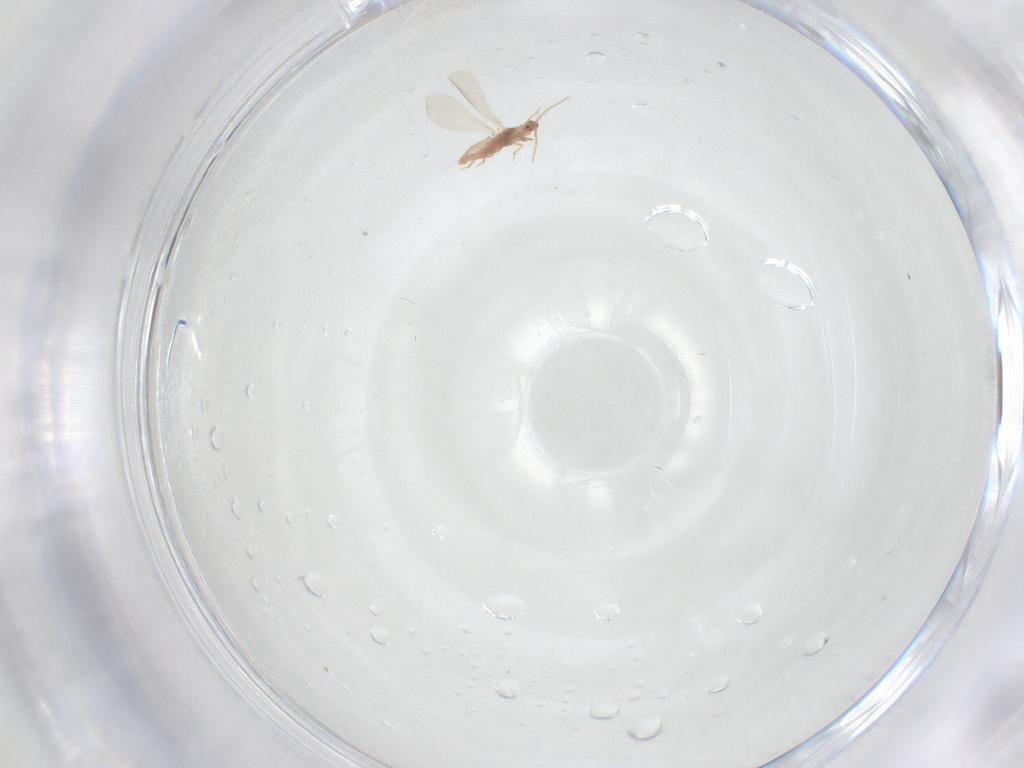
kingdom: Animalia
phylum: Arthropoda
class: Insecta
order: Hemiptera
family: Pseudococcidae
